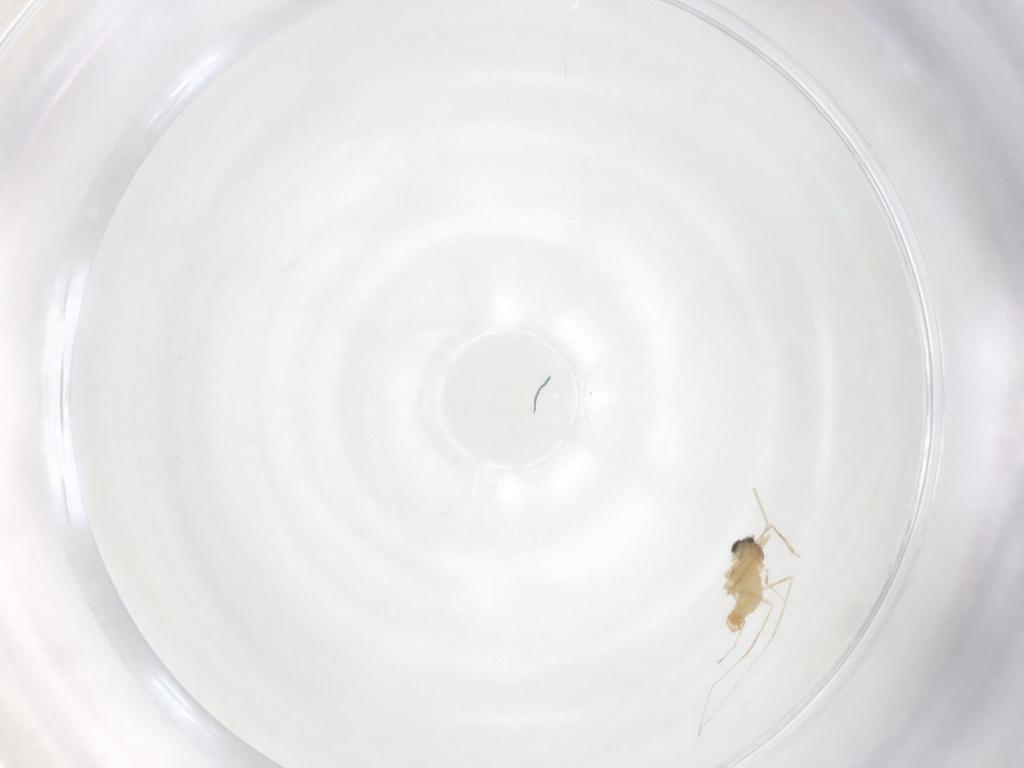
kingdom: Animalia
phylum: Arthropoda
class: Insecta
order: Diptera
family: Cecidomyiidae
